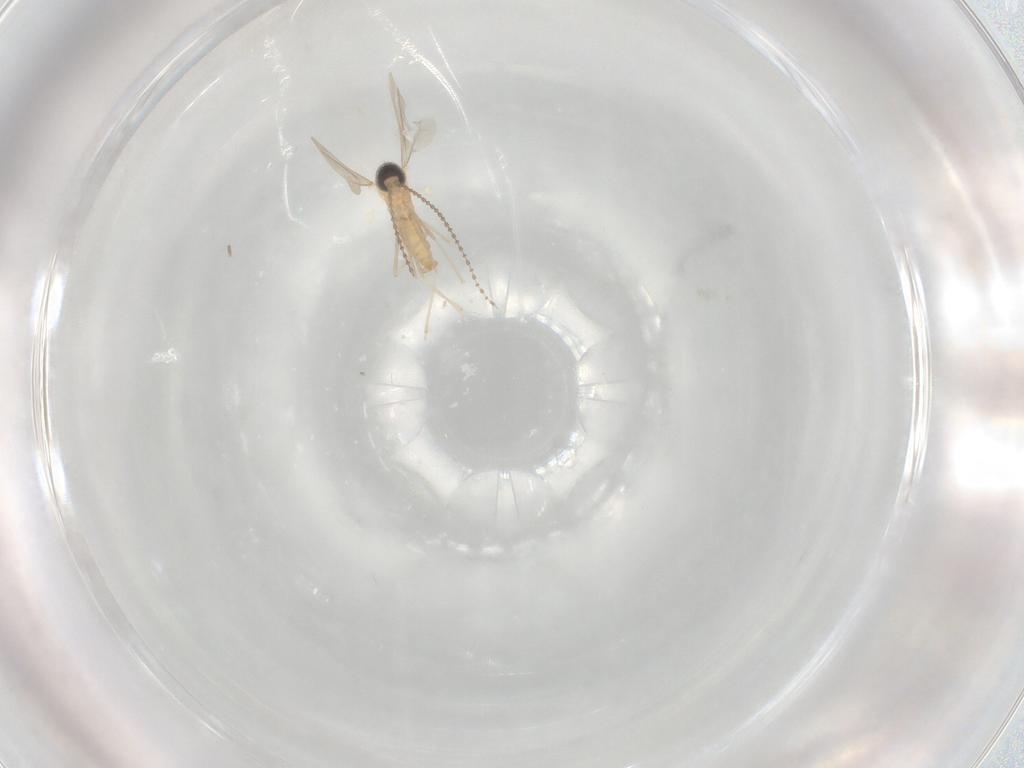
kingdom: Animalia
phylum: Arthropoda
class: Insecta
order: Diptera
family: Cecidomyiidae
